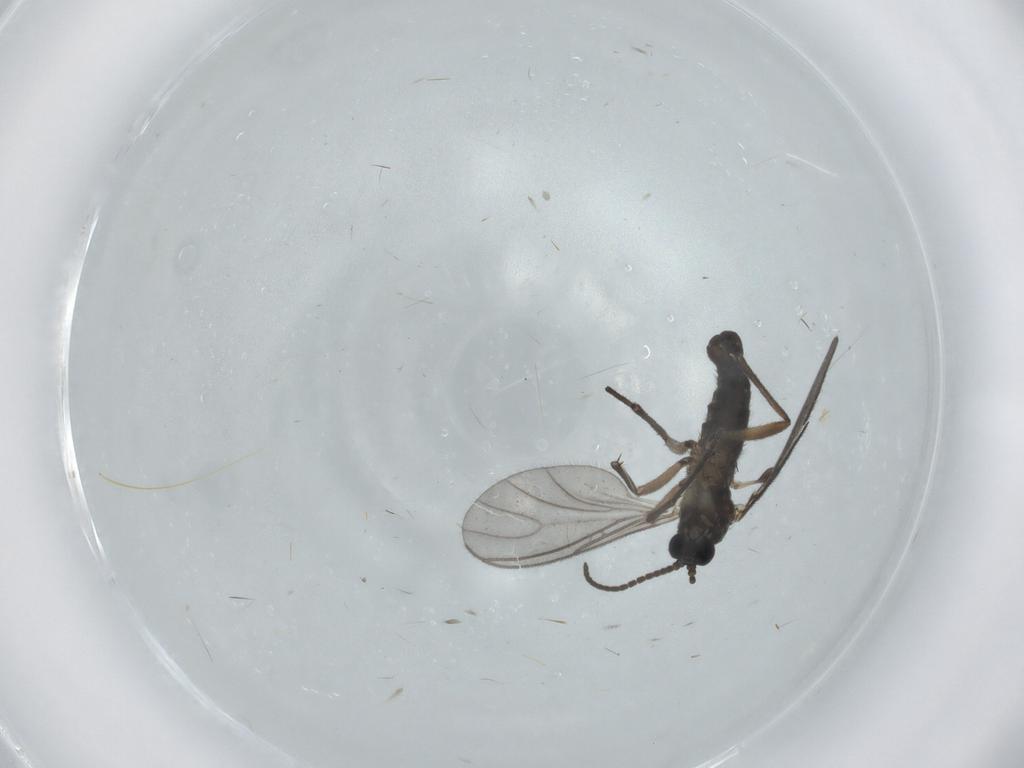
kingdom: Animalia
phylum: Arthropoda
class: Insecta
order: Diptera
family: Sciaridae
